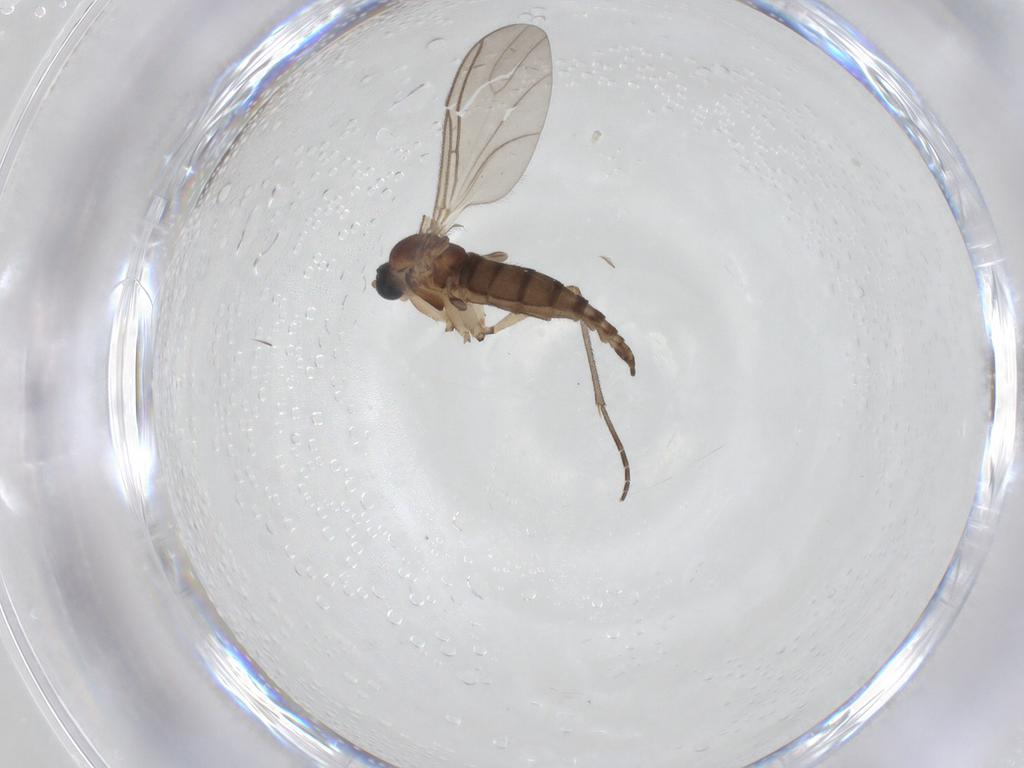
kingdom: Animalia
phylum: Arthropoda
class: Insecta
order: Diptera
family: Sciaridae
